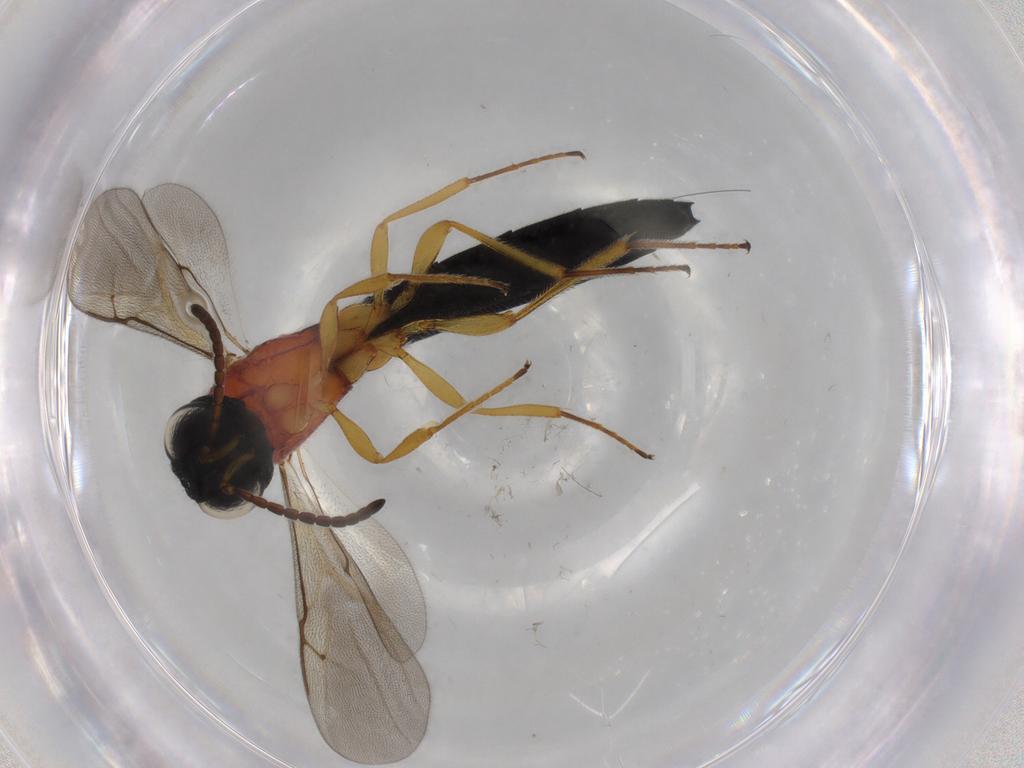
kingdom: Animalia
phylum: Arthropoda
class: Insecta
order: Hymenoptera
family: Scelionidae
